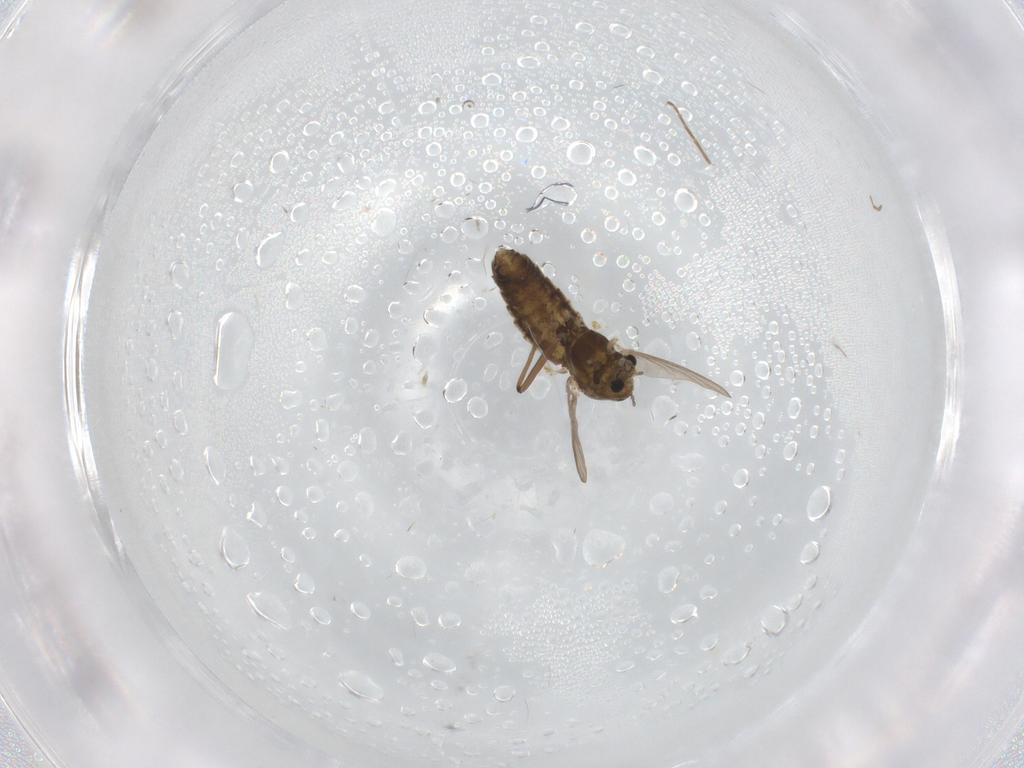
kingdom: Animalia
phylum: Arthropoda
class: Insecta
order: Diptera
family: Chironomidae
